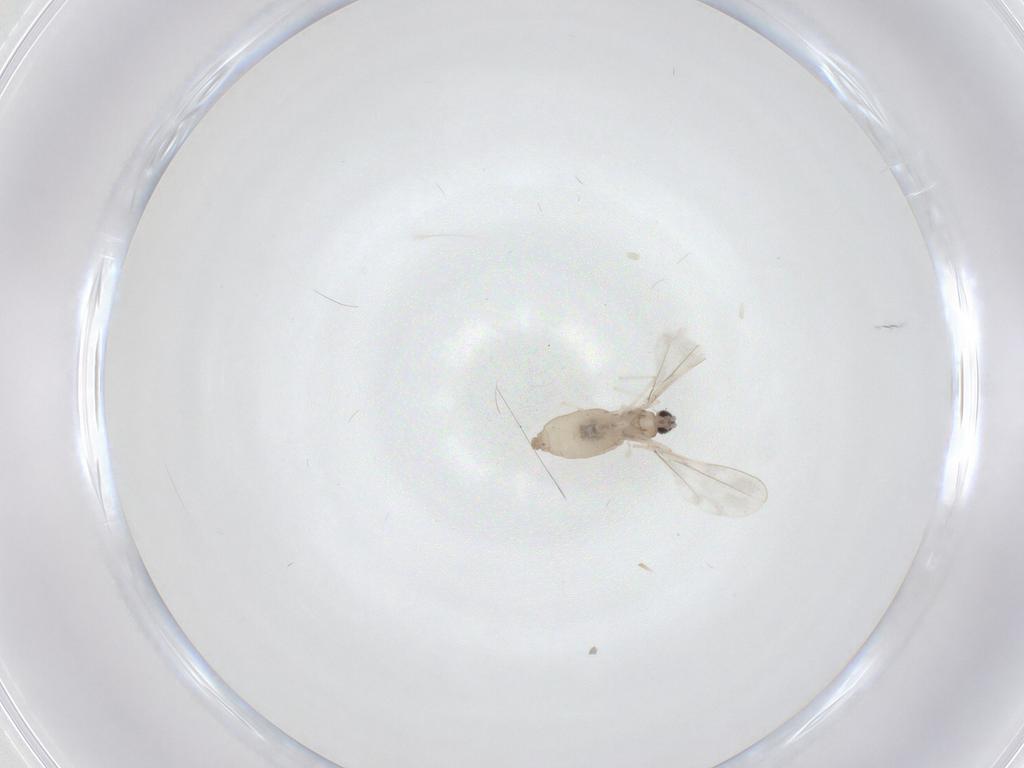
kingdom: Animalia
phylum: Arthropoda
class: Insecta
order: Diptera
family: Cecidomyiidae
